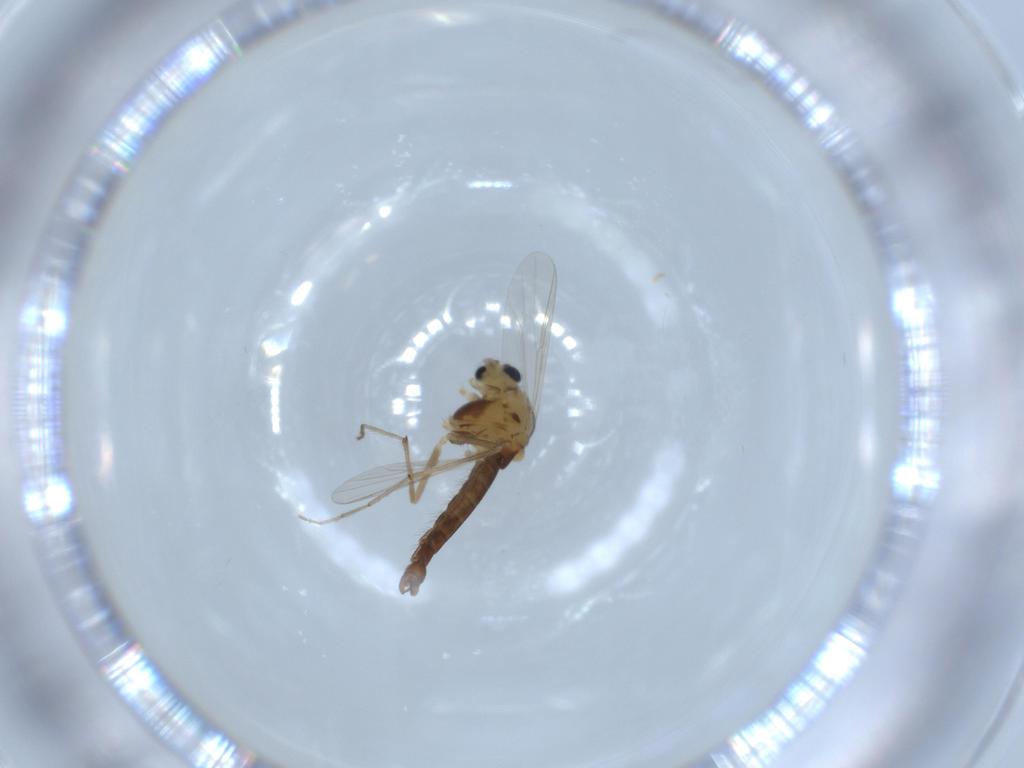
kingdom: Animalia
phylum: Arthropoda
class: Insecta
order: Diptera
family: Chironomidae
